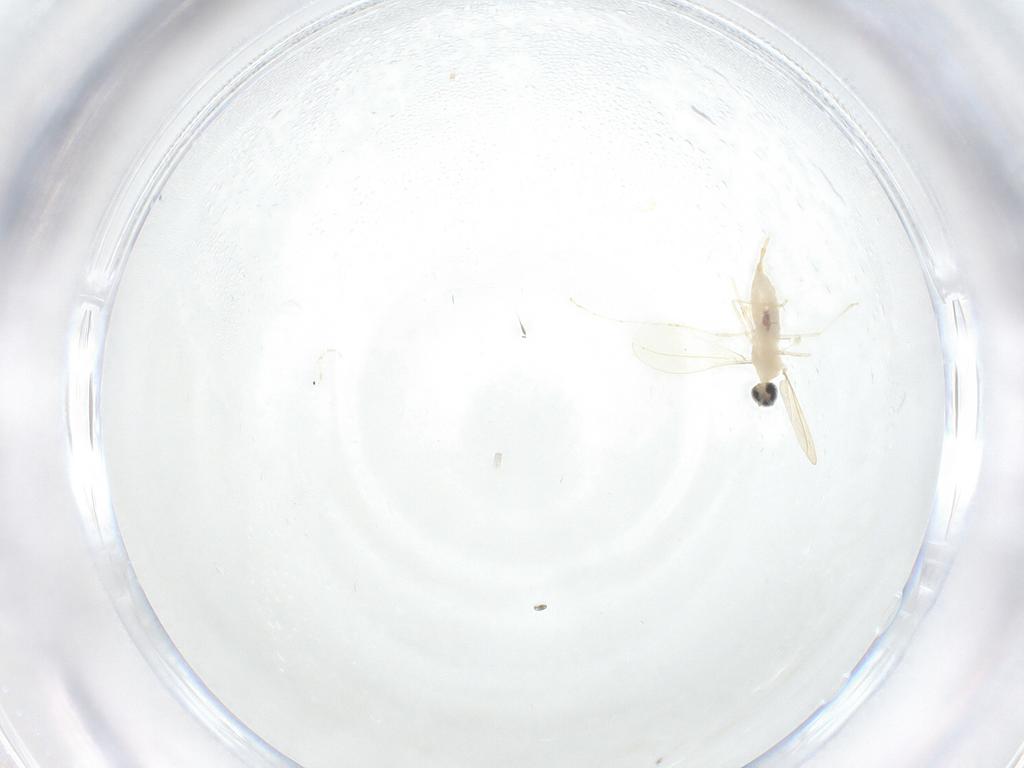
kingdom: Animalia
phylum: Arthropoda
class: Insecta
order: Diptera
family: Cecidomyiidae
